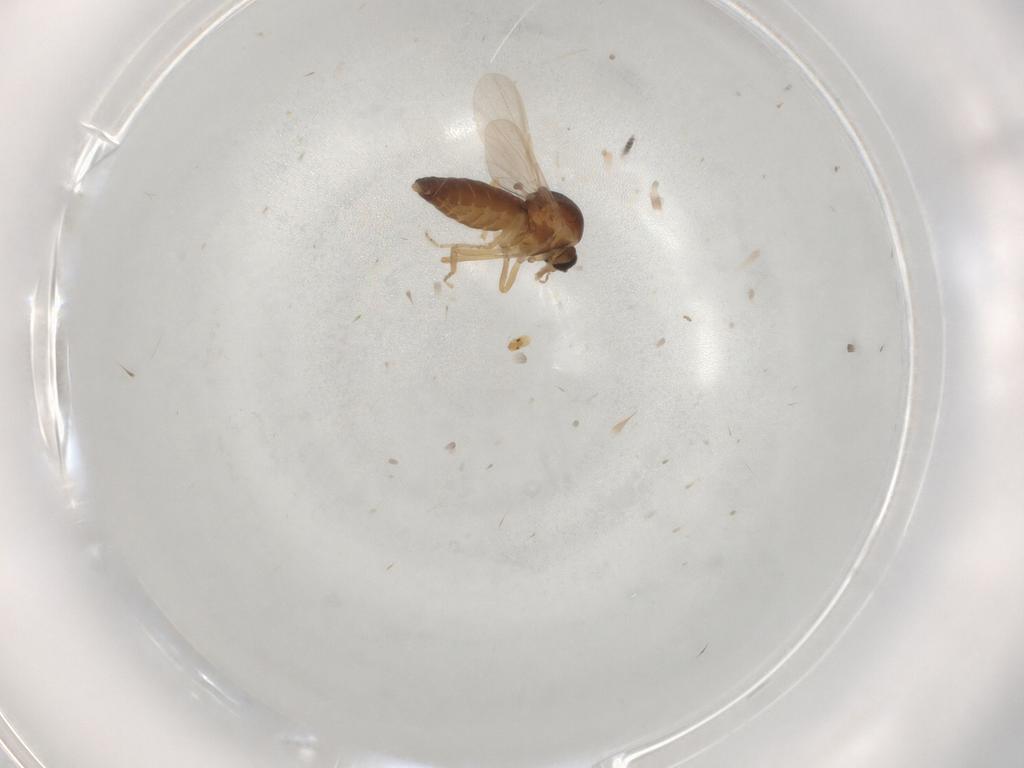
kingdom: Animalia
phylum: Arthropoda
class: Insecta
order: Diptera
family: Ceratopogonidae
